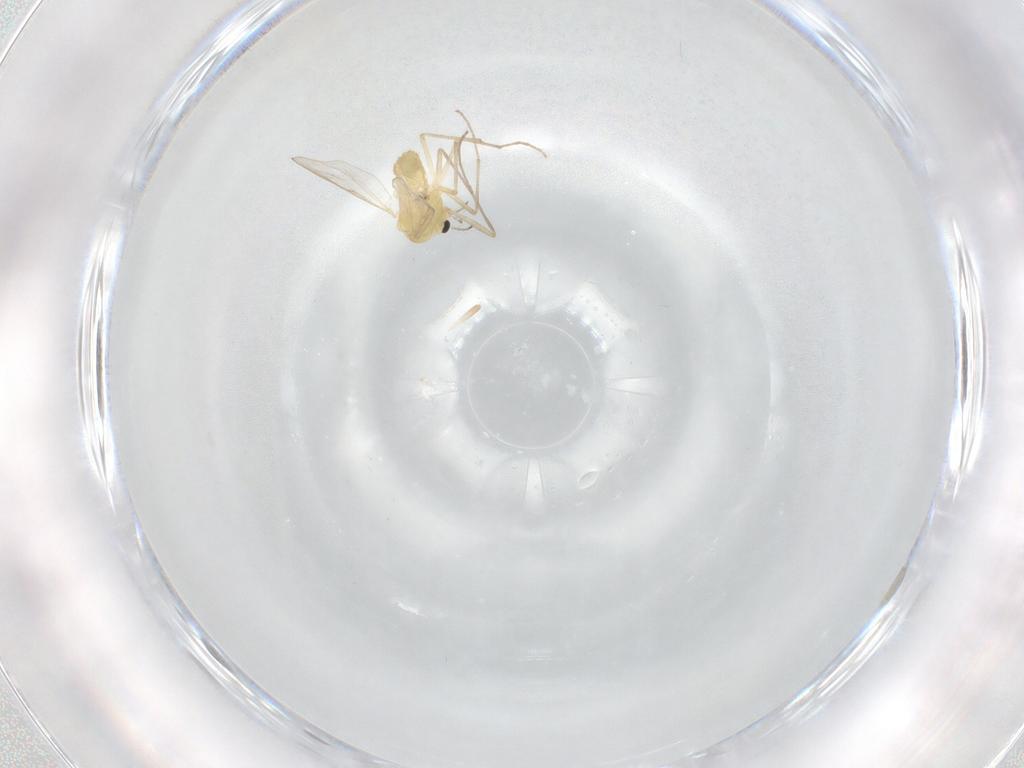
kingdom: Animalia
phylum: Arthropoda
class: Insecta
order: Diptera
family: Chironomidae
